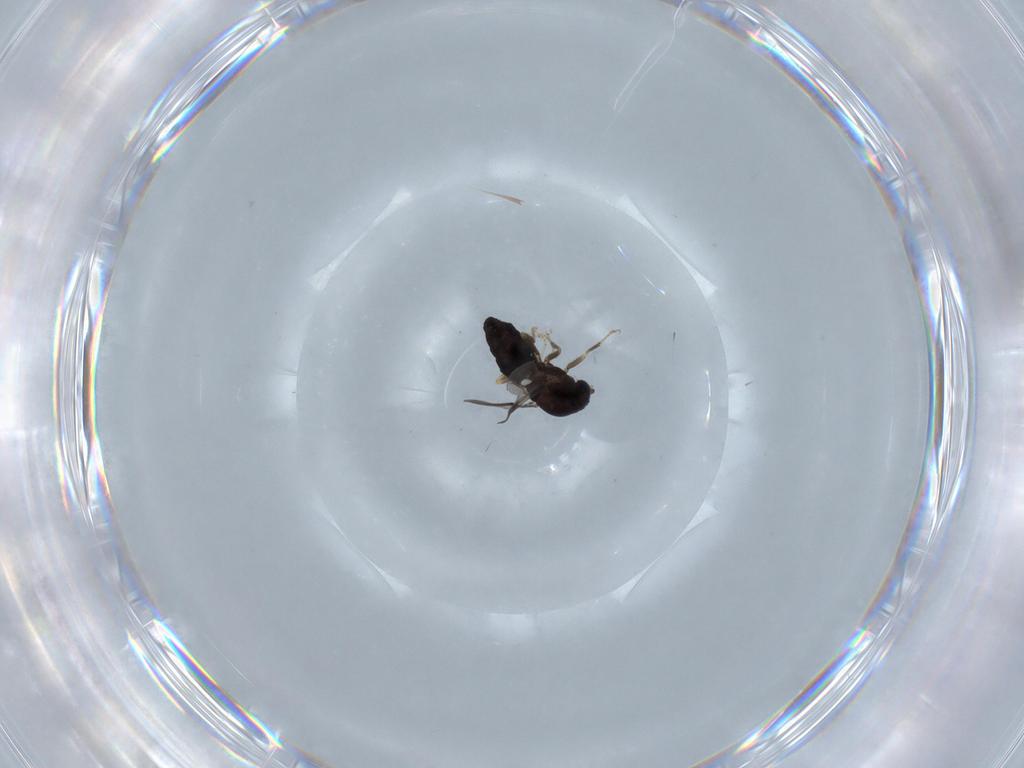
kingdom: Animalia
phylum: Arthropoda
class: Insecta
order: Diptera
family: Ceratopogonidae
